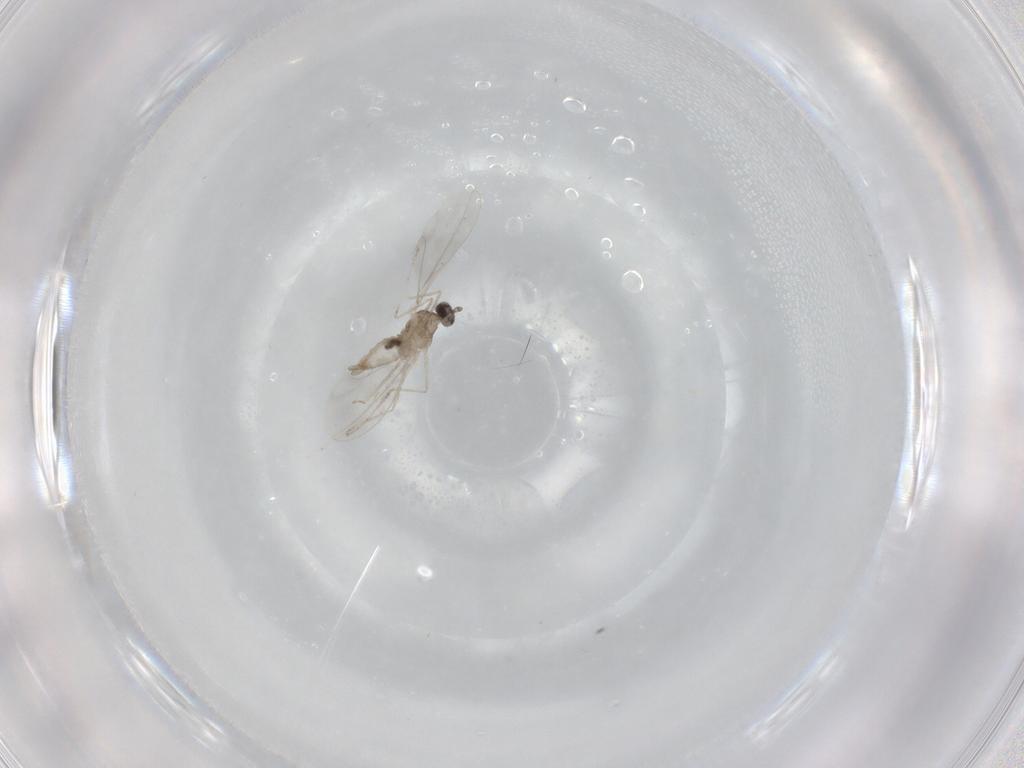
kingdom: Animalia
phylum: Arthropoda
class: Insecta
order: Diptera
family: Cecidomyiidae
